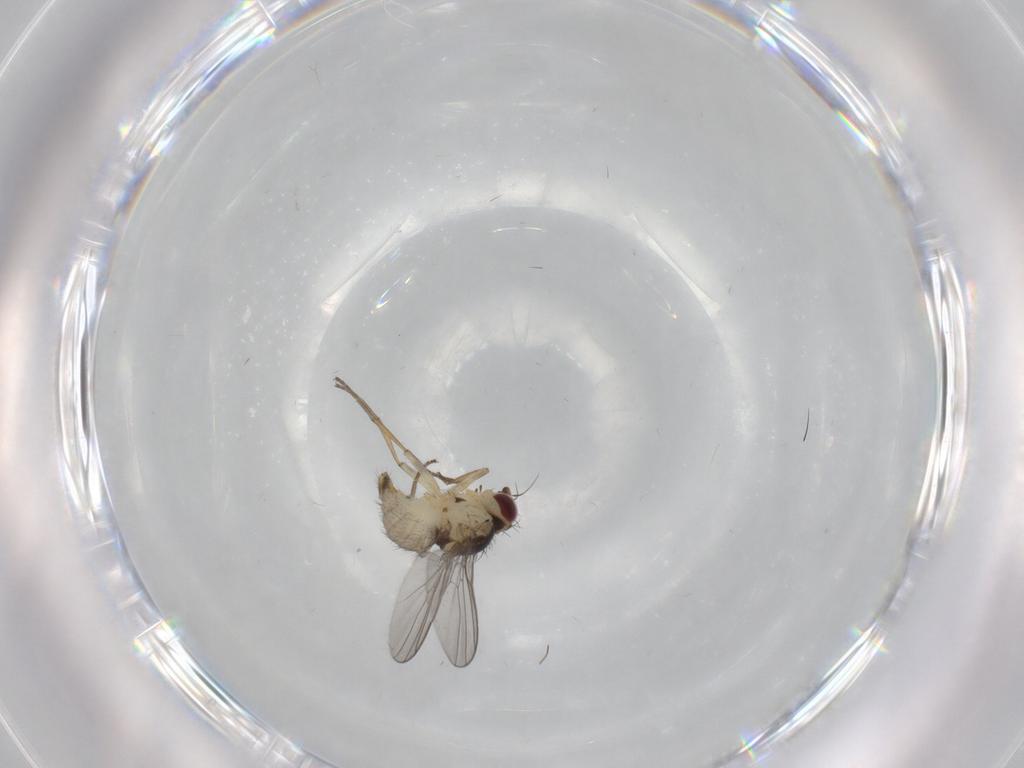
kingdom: Animalia
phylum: Arthropoda
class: Insecta
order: Diptera
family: Agromyzidae
